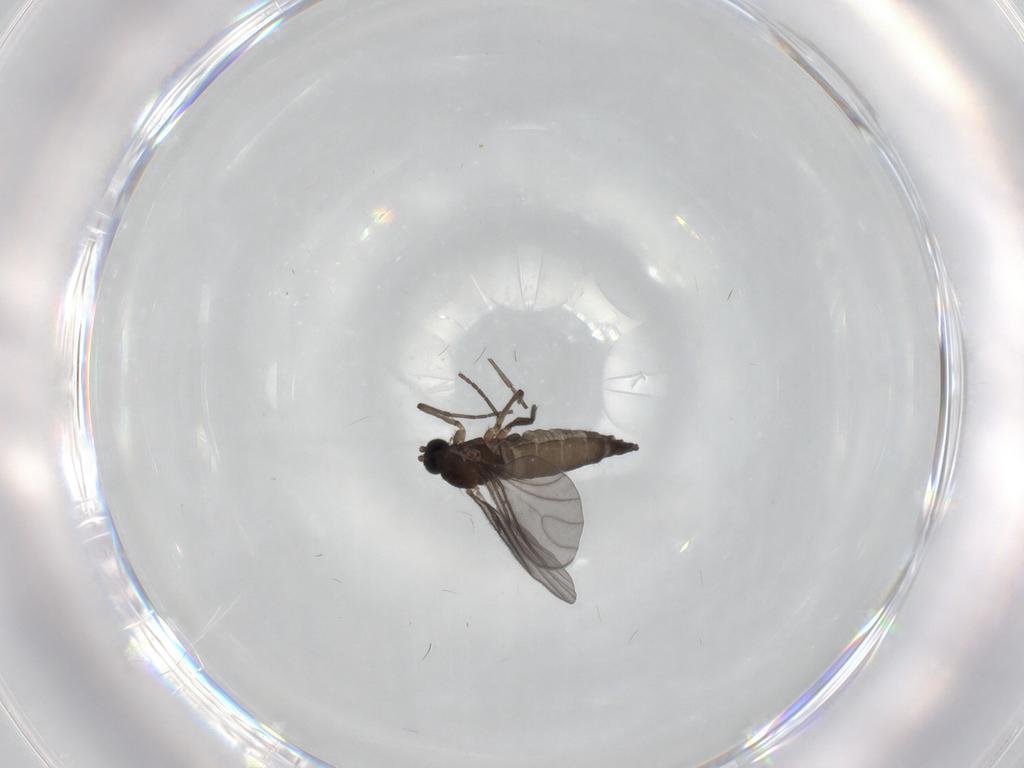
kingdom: Animalia
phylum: Arthropoda
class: Insecta
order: Diptera
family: Sciaridae
